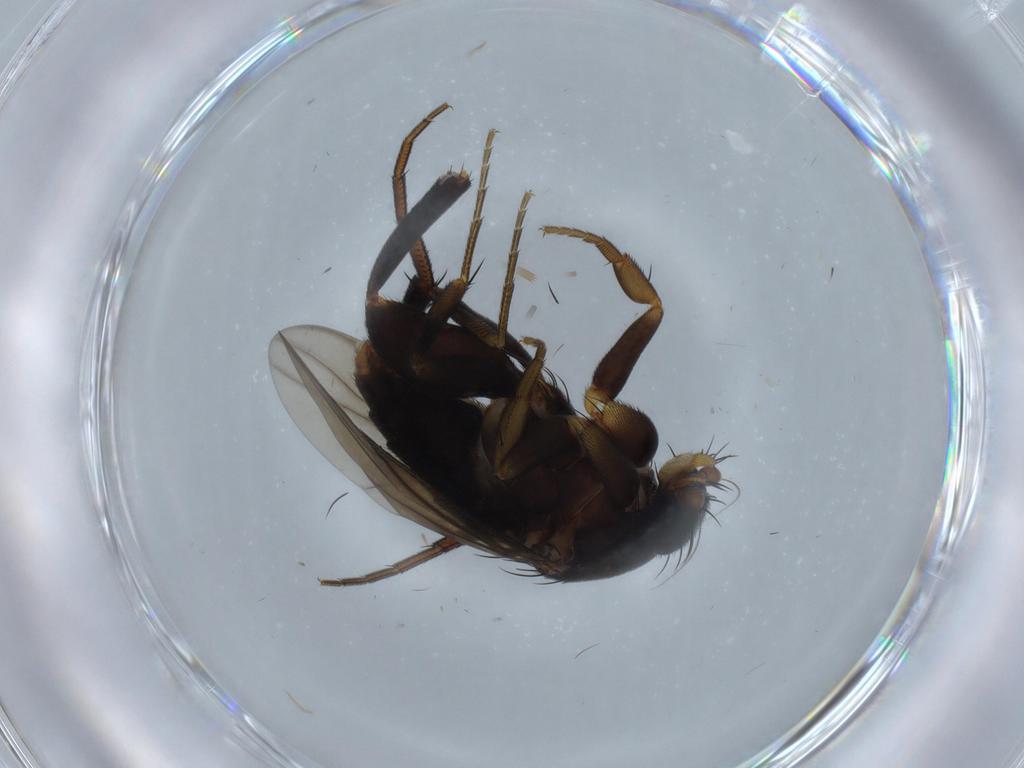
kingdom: Animalia
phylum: Arthropoda
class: Insecta
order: Diptera
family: Phoridae
